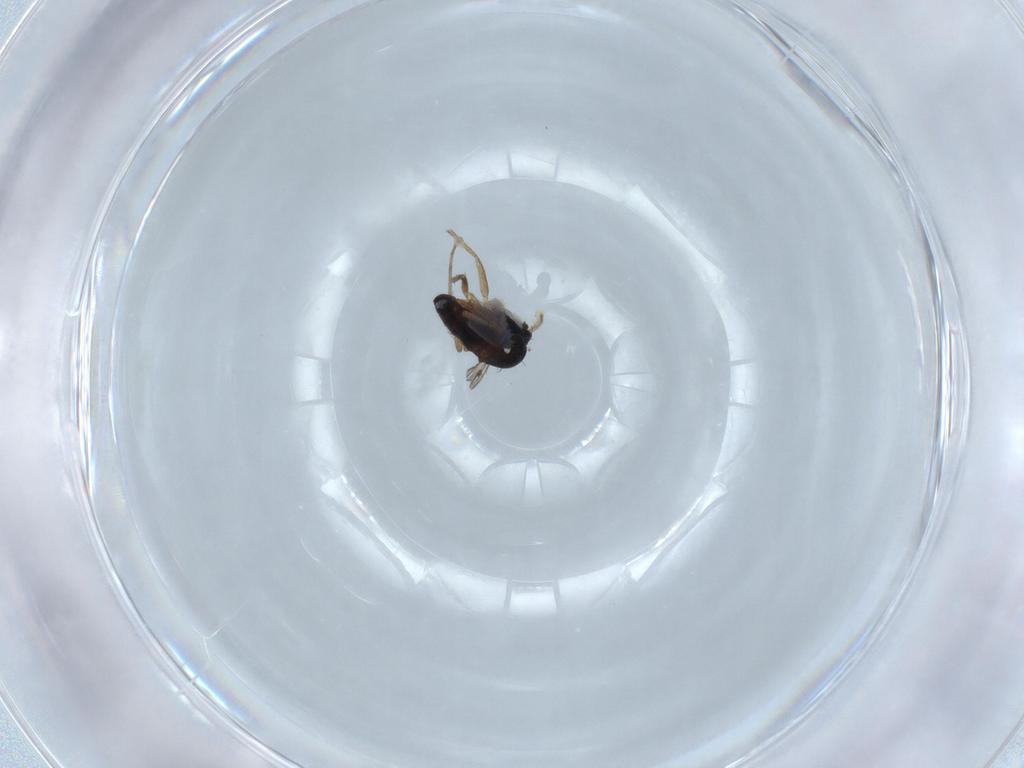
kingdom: Animalia
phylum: Arthropoda
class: Insecta
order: Diptera
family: Dolichopodidae
